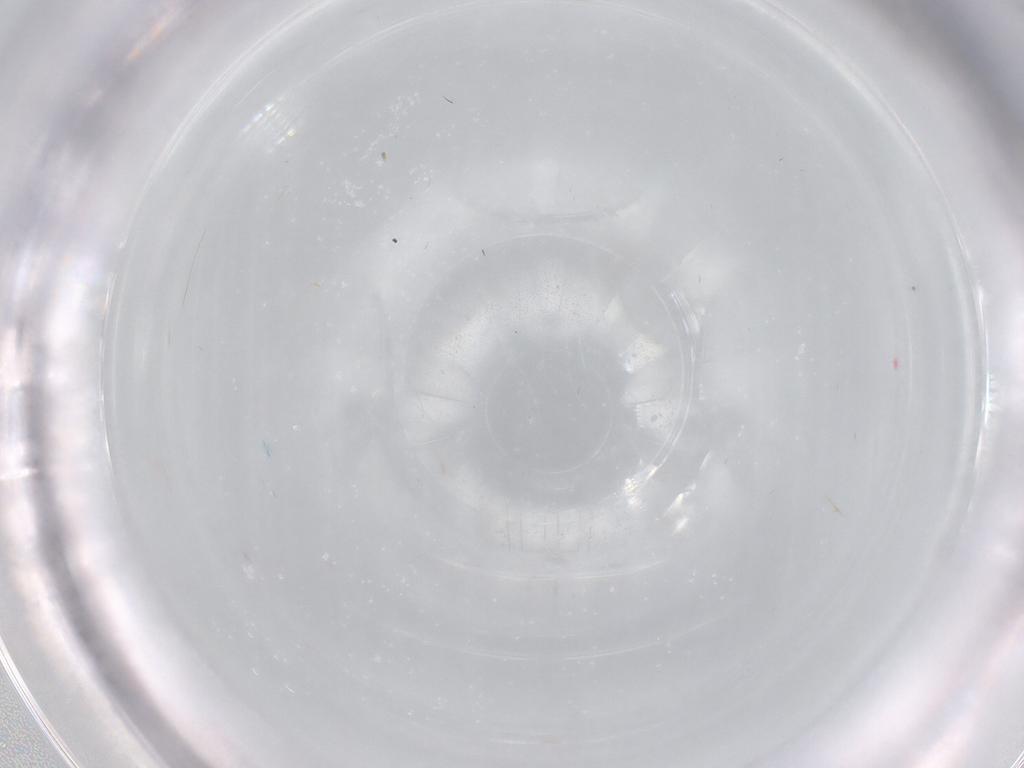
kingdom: Animalia
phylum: Arthropoda
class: Insecta
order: Diptera
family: Chironomidae
